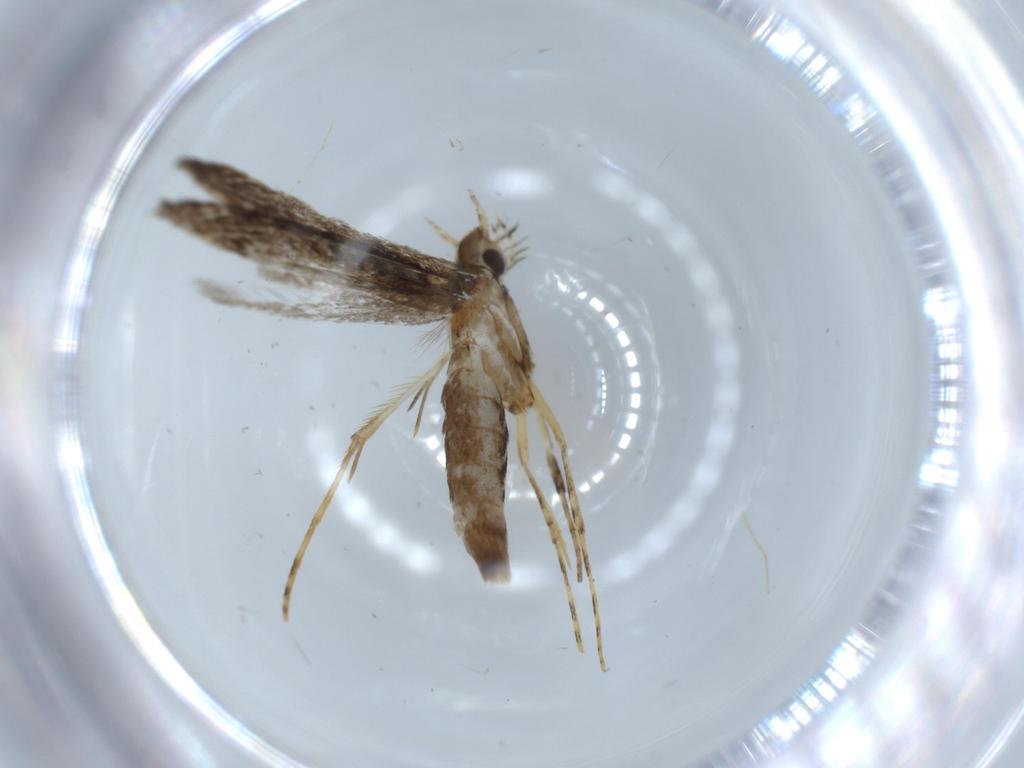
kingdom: Animalia
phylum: Arthropoda
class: Insecta
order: Lepidoptera
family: Gracillariidae
